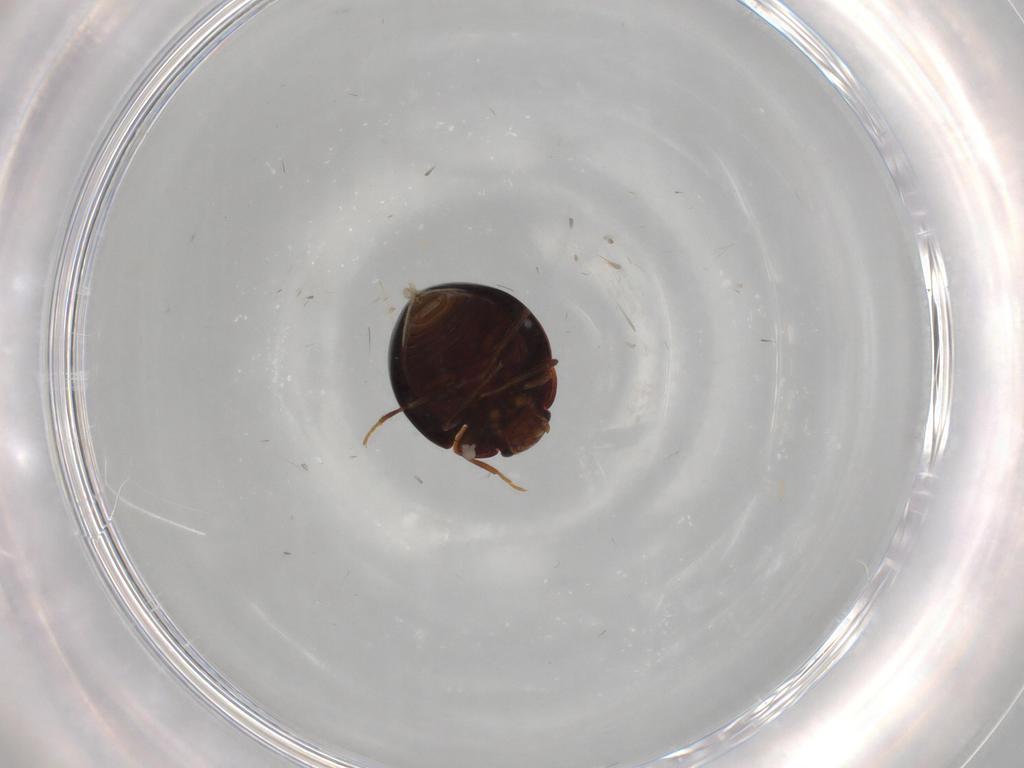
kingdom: Animalia
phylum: Arthropoda
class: Insecta
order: Coleoptera
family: Anamorphidae
